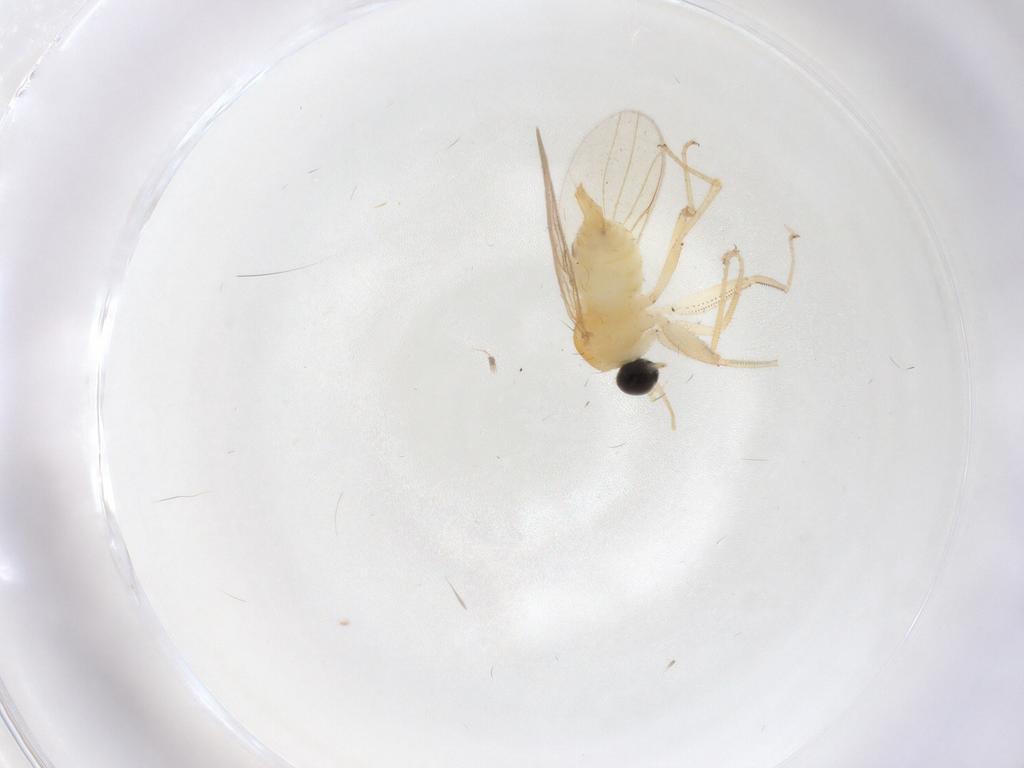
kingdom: Animalia
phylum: Arthropoda
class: Insecta
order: Diptera
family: Hybotidae
